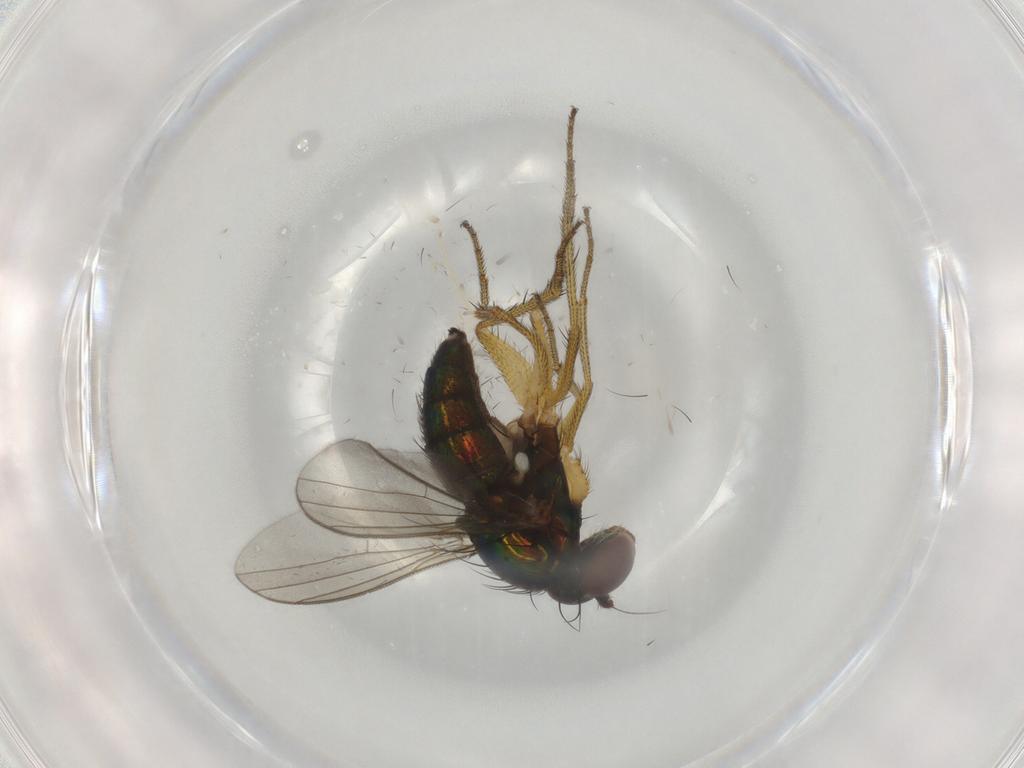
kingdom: Animalia
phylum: Arthropoda
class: Insecta
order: Diptera
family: Dolichopodidae
